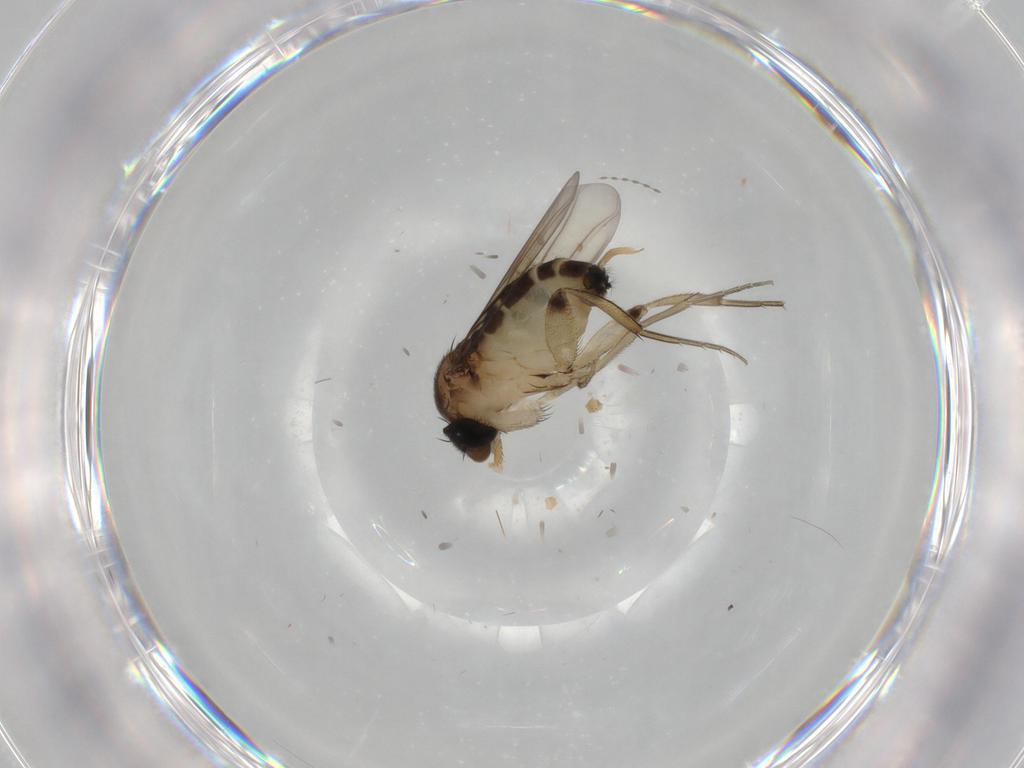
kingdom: Animalia
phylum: Arthropoda
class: Insecta
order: Diptera
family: Phoridae
